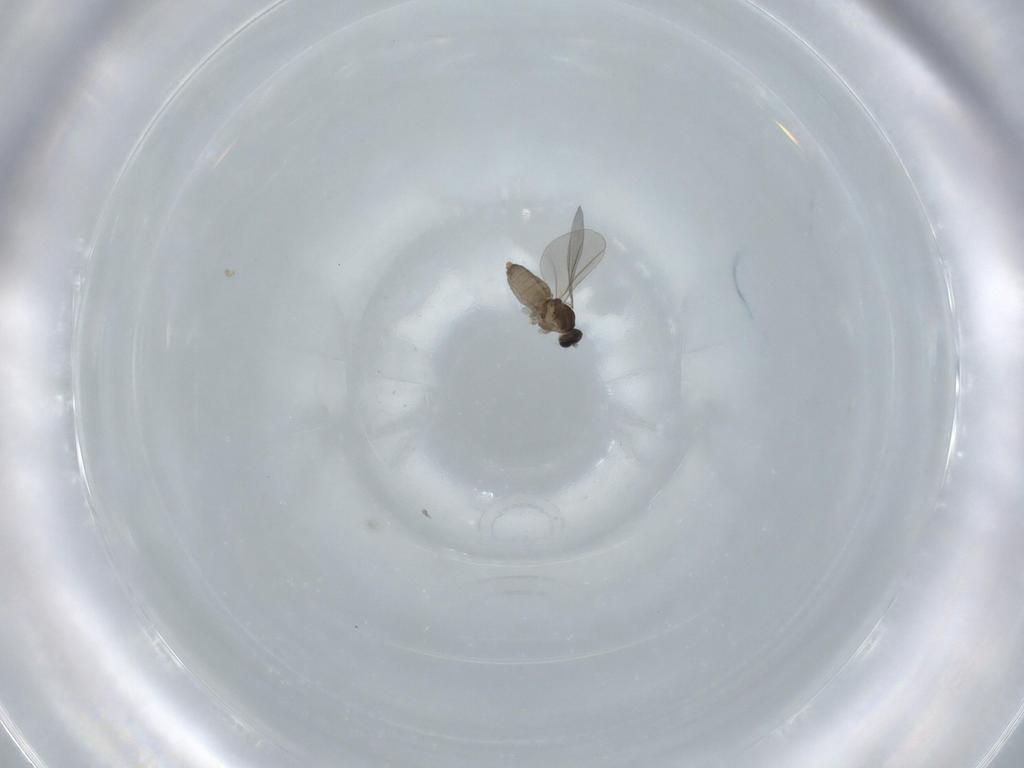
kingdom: Animalia
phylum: Arthropoda
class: Insecta
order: Diptera
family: Cecidomyiidae
